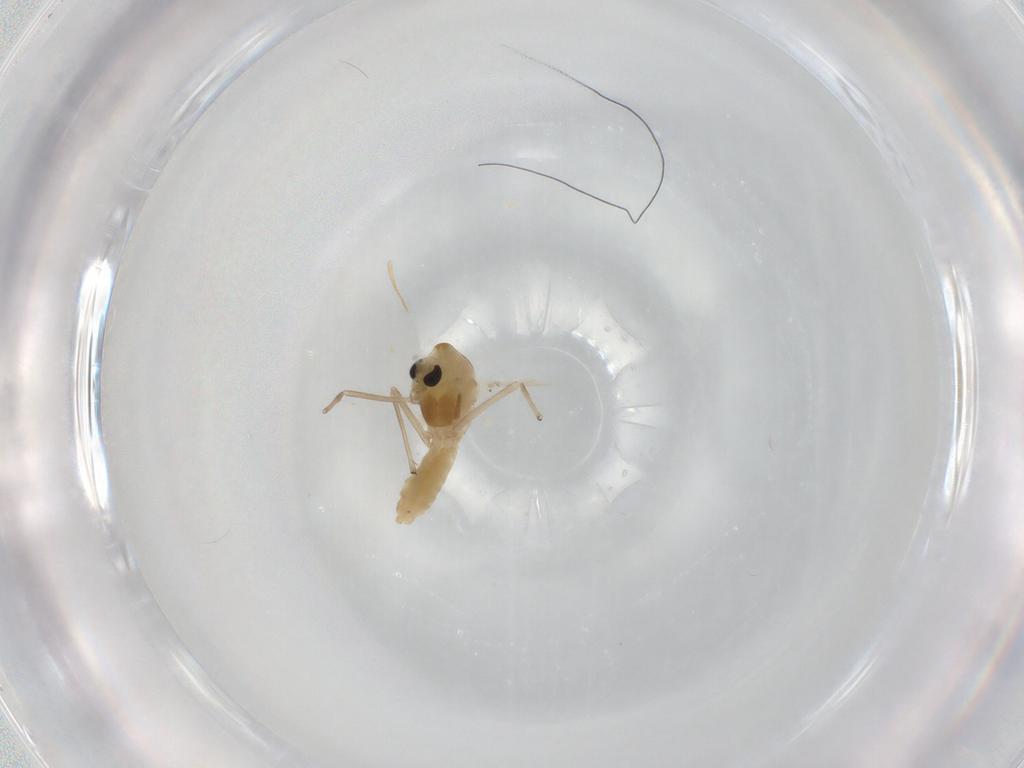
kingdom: Animalia
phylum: Arthropoda
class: Insecta
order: Diptera
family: Chironomidae
